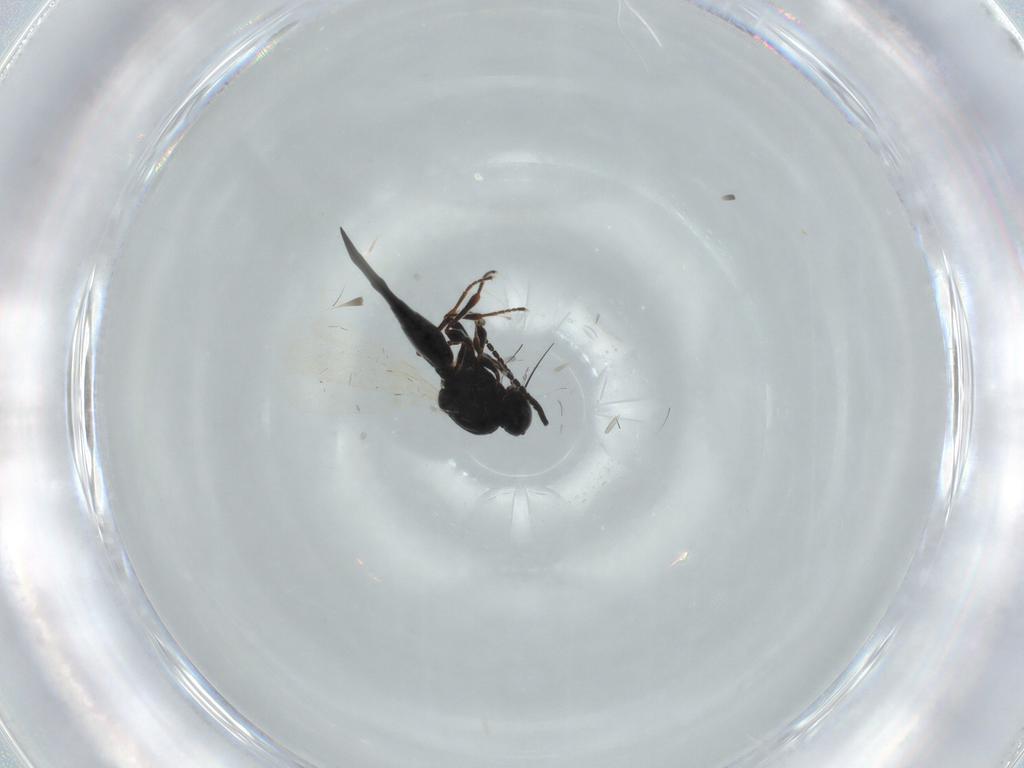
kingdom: Animalia
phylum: Arthropoda
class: Insecta
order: Hymenoptera
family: Platygastridae
